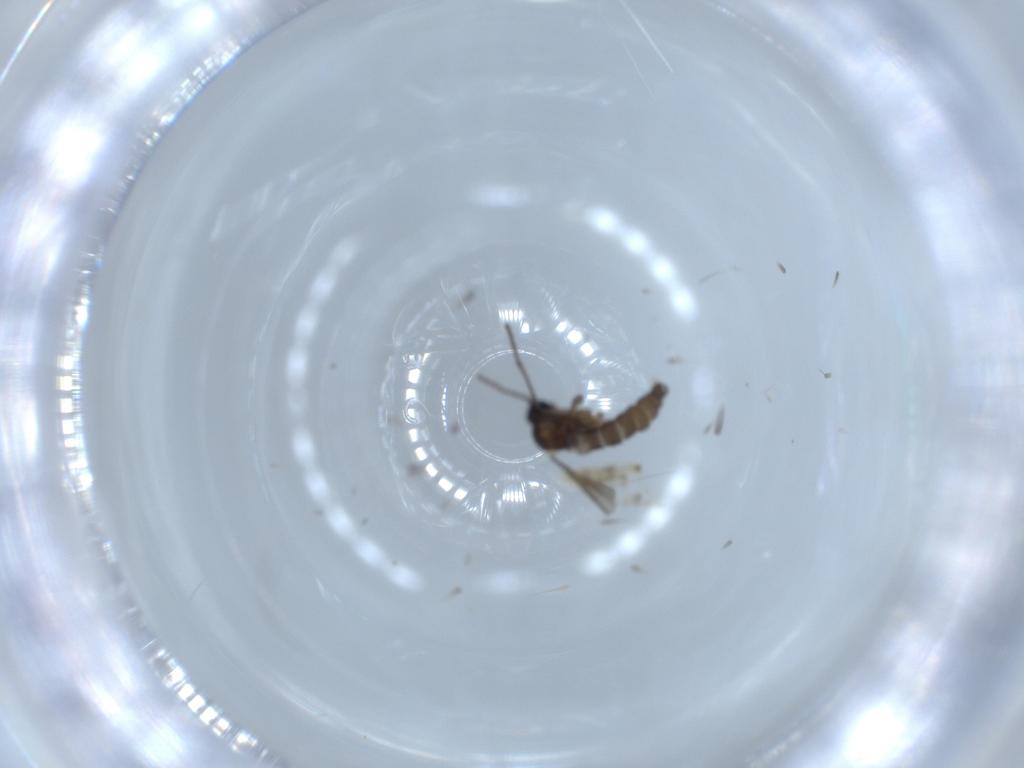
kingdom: Animalia
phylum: Arthropoda
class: Insecta
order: Diptera
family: Sciaridae
